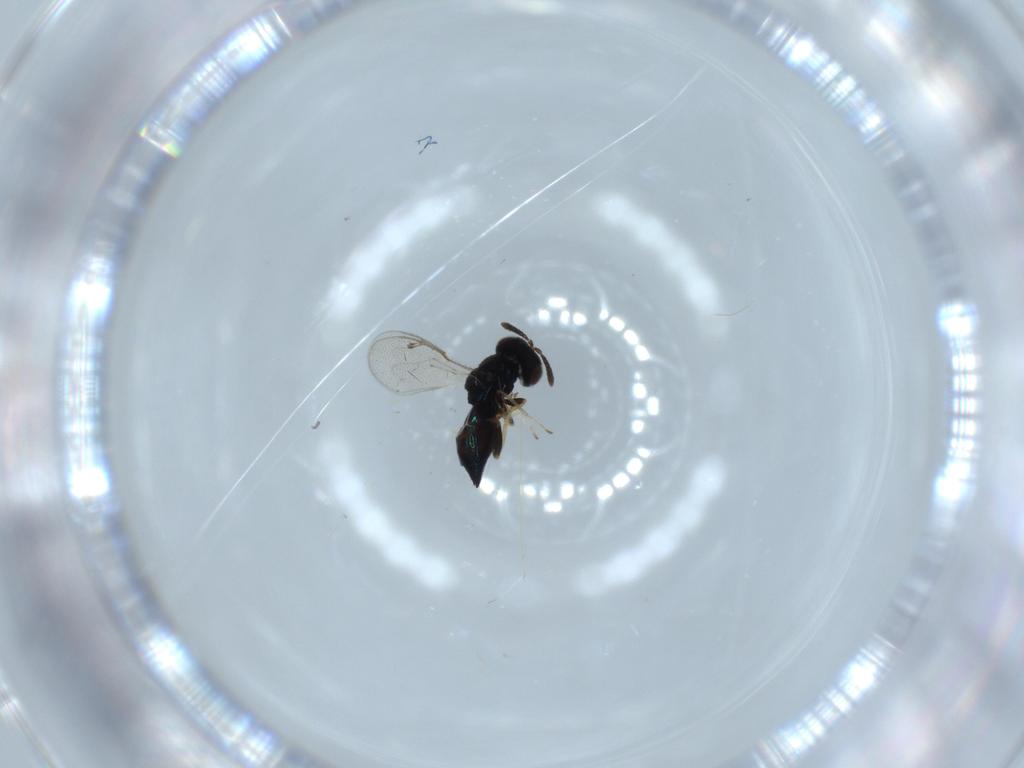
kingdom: Animalia
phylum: Arthropoda
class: Insecta
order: Hymenoptera
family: Pteromalidae
